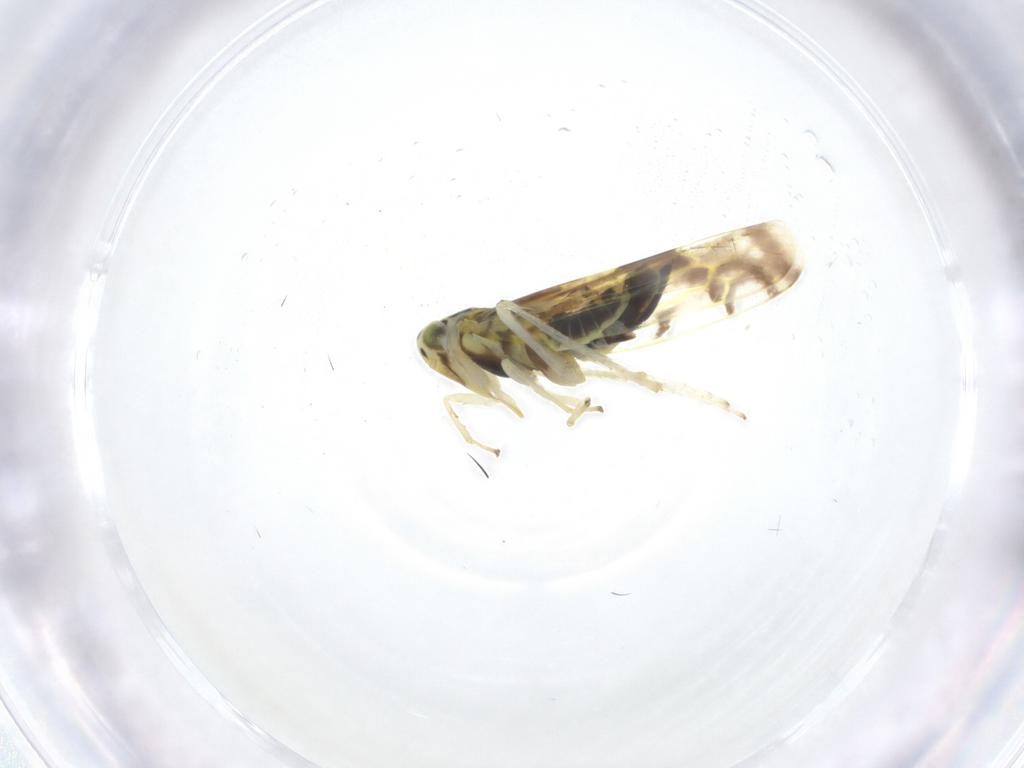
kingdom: Animalia
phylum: Arthropoda
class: Insecta
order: Hemiptera
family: Cicadellidae
